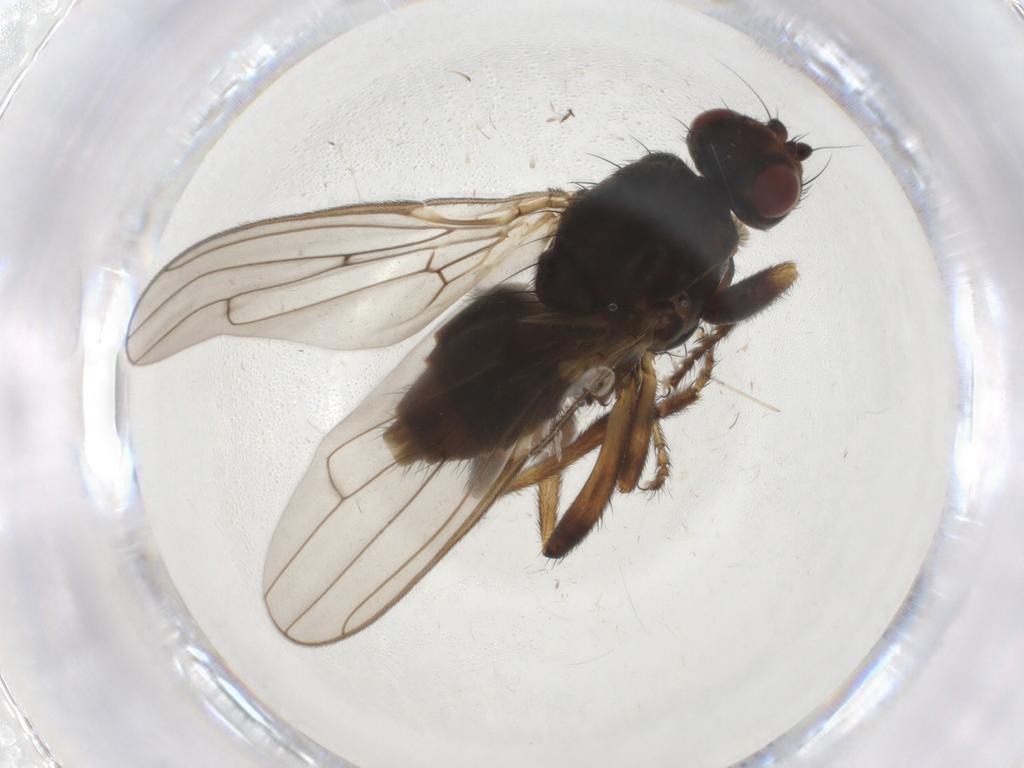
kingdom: Animalia
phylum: Arthropoda
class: Insecta
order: Diptera
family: Sphaeroceridae
